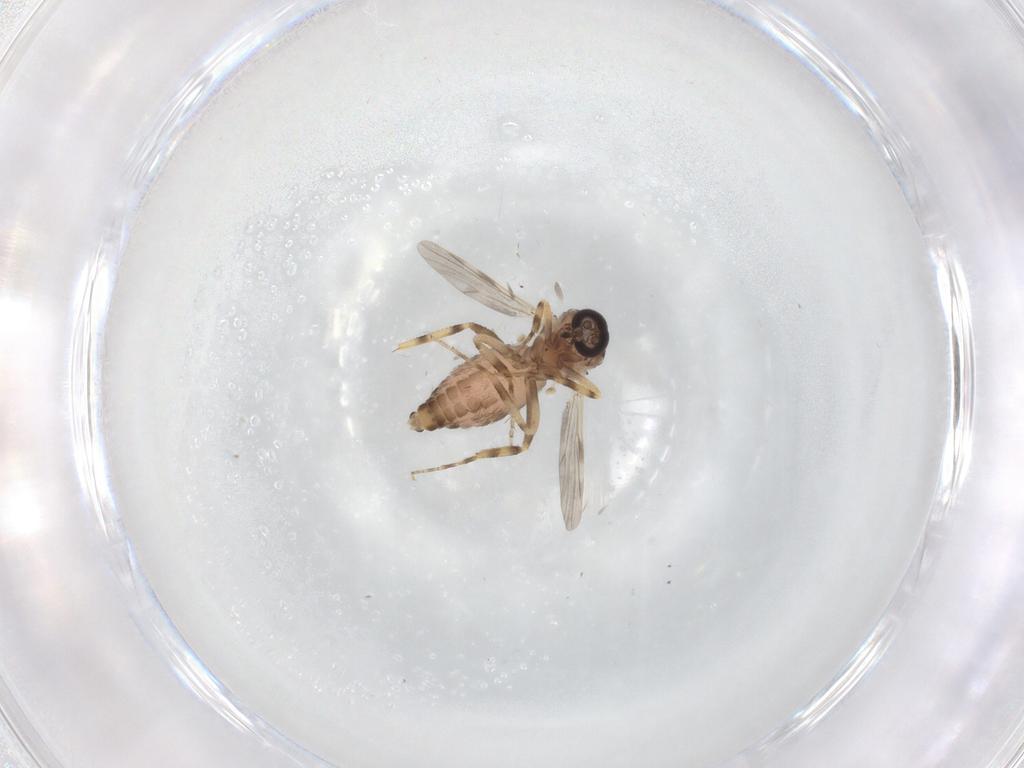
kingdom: Animalia
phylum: Arthropoda
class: Insecta
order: Diptera
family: Ceratopogonidae
